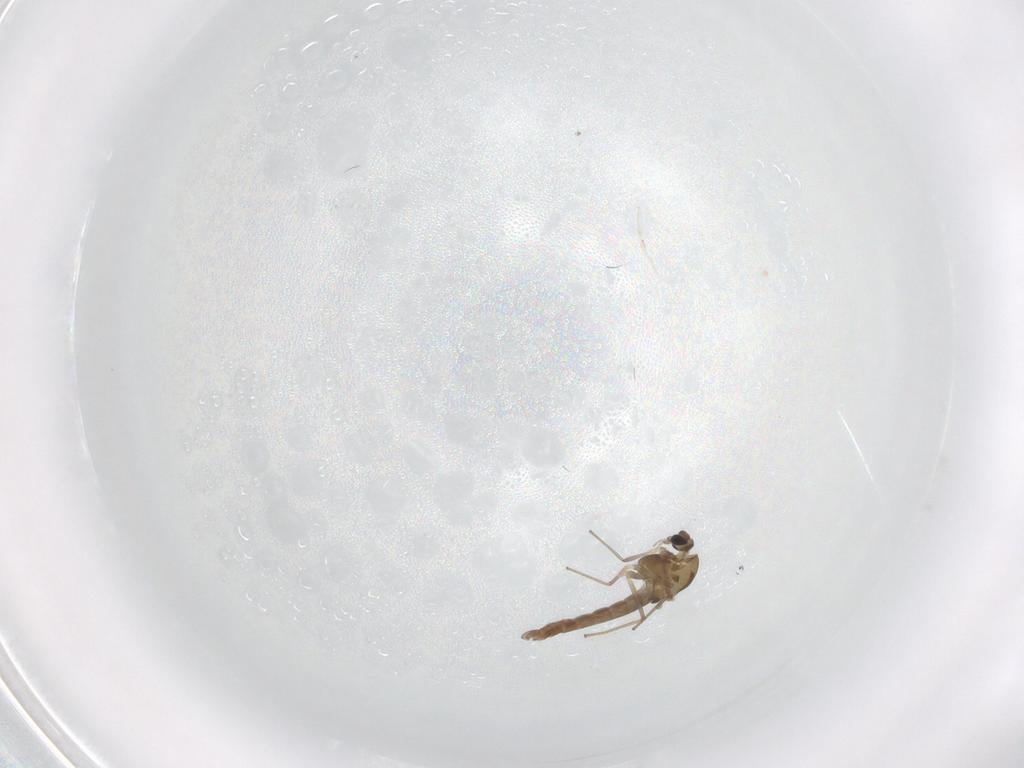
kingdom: Animalia
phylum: Arthropoda
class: Insecta
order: Diptera
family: Chironomidae
